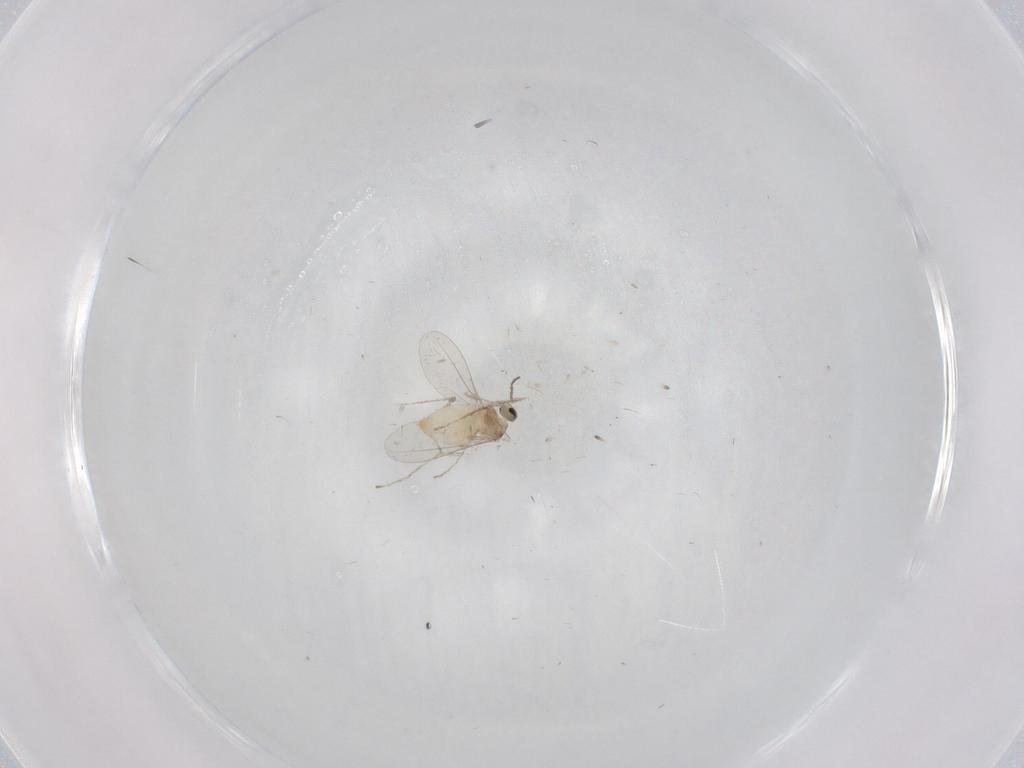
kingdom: Animalia
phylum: Arthropoda
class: Insecta
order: Diptera
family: Cecidomyiidae
